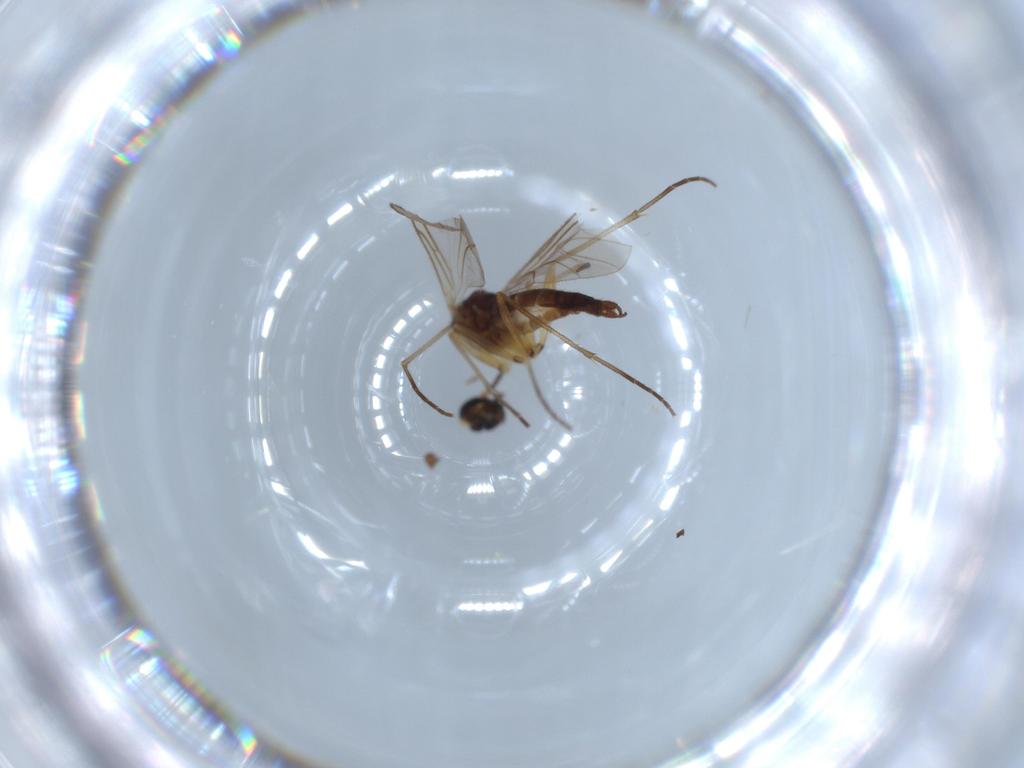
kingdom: Animalia
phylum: Arthropoda
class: Insecta
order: Diptera
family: Sciaridae
